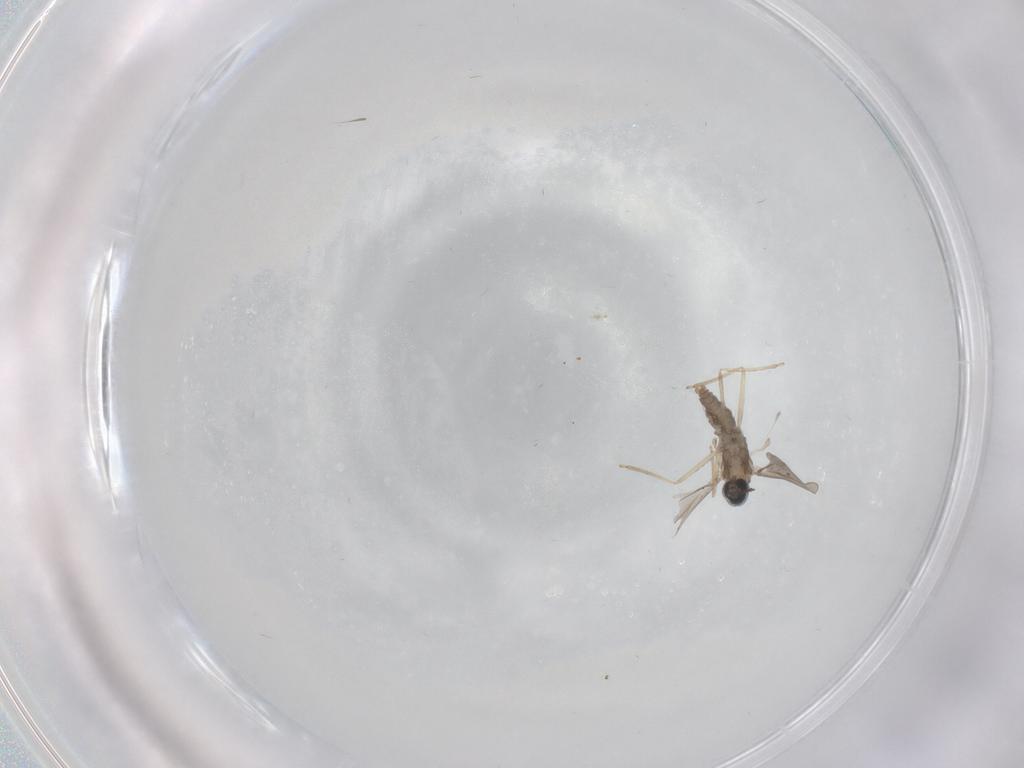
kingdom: Animalia
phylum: Arthropoda
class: Insecta
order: Diptera
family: Cecidomyiidae
